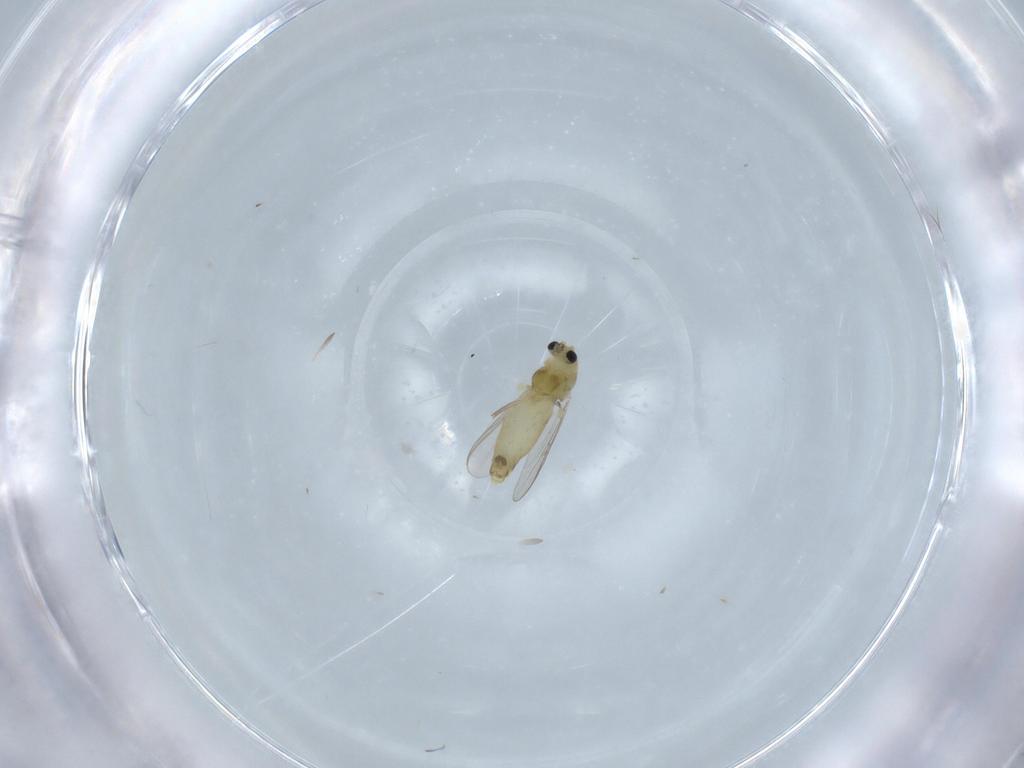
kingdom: Animalia
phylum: Arthropoda
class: Insecta
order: Diptera
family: Chironomidae
